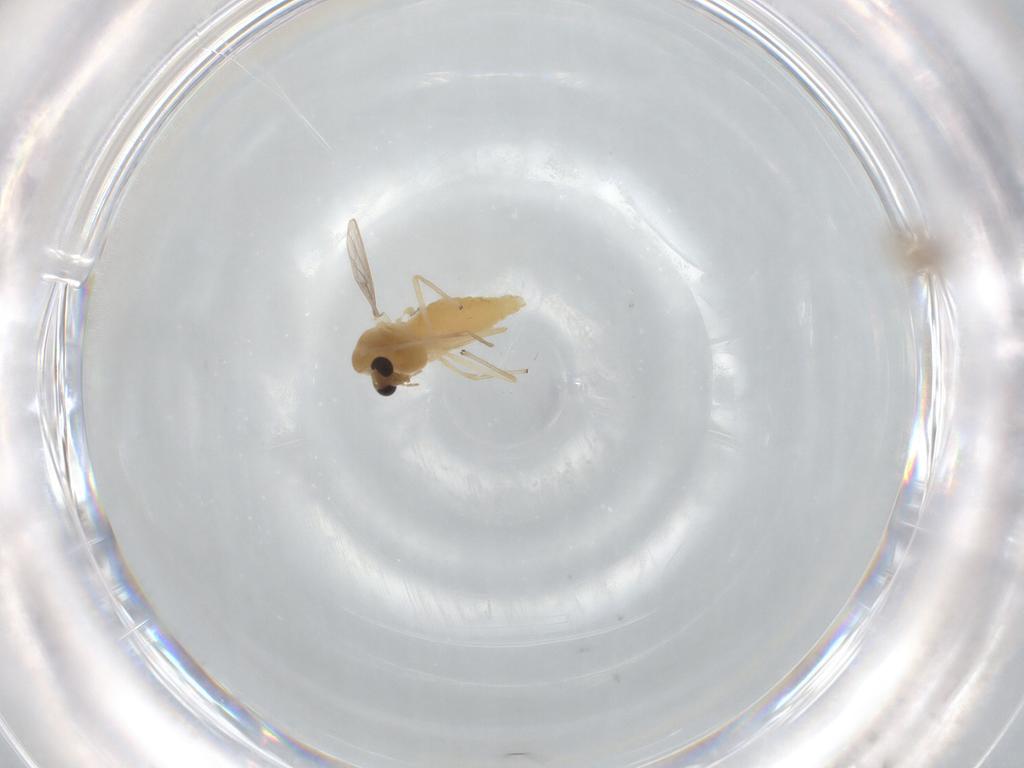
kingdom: Animalia
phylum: Arthropoda
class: Insecta
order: Diptera
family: Chironomidae
